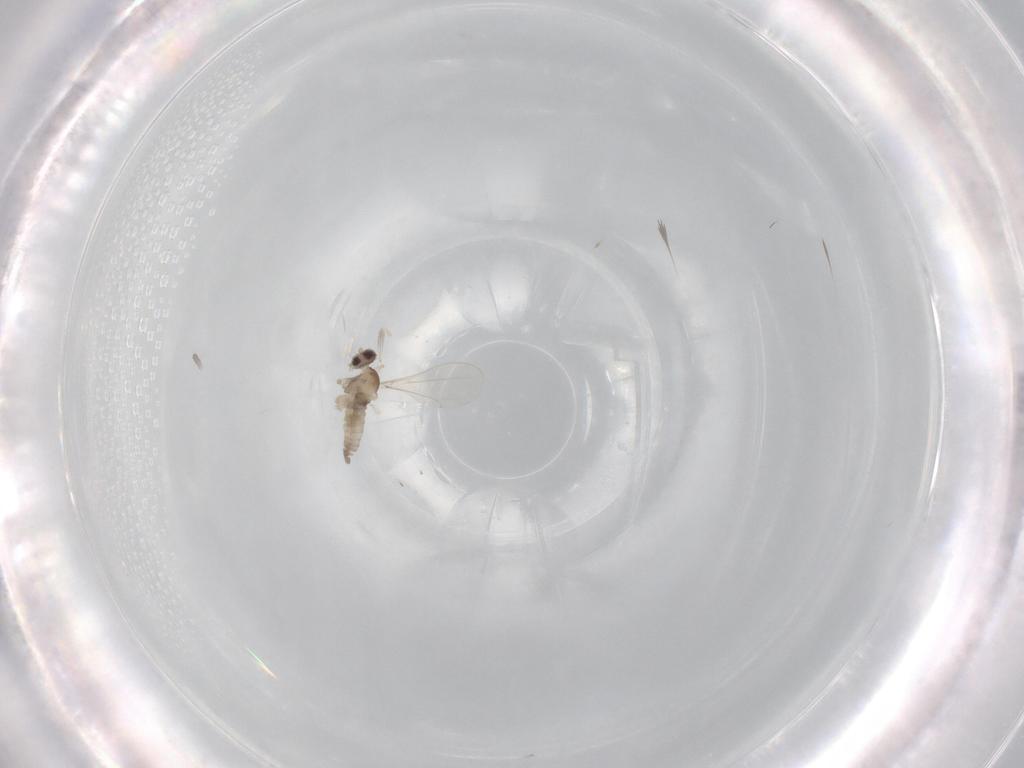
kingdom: Animalia
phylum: Arthropoda
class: Insecta
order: Diptera
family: Cecidomyiidae
